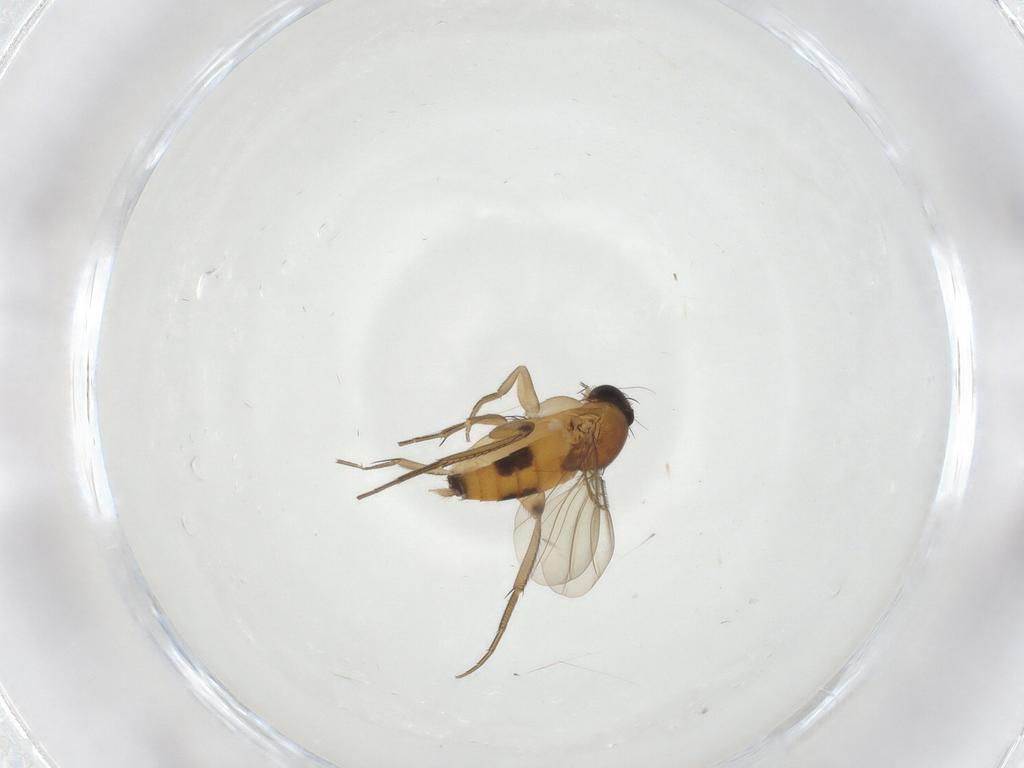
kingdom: Animalia
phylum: Arthropoda
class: Insecta
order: Diptera
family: Phoridae
